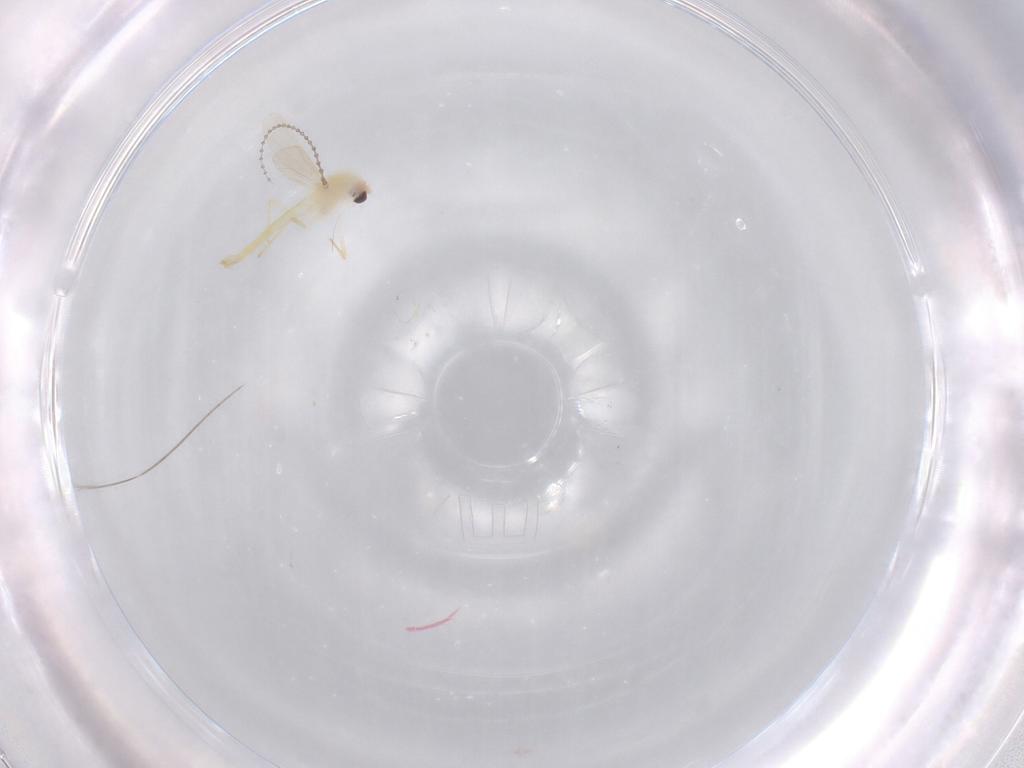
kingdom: Animalia
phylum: Arthropoda
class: Insecta
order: Diptera
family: Chironomidae
